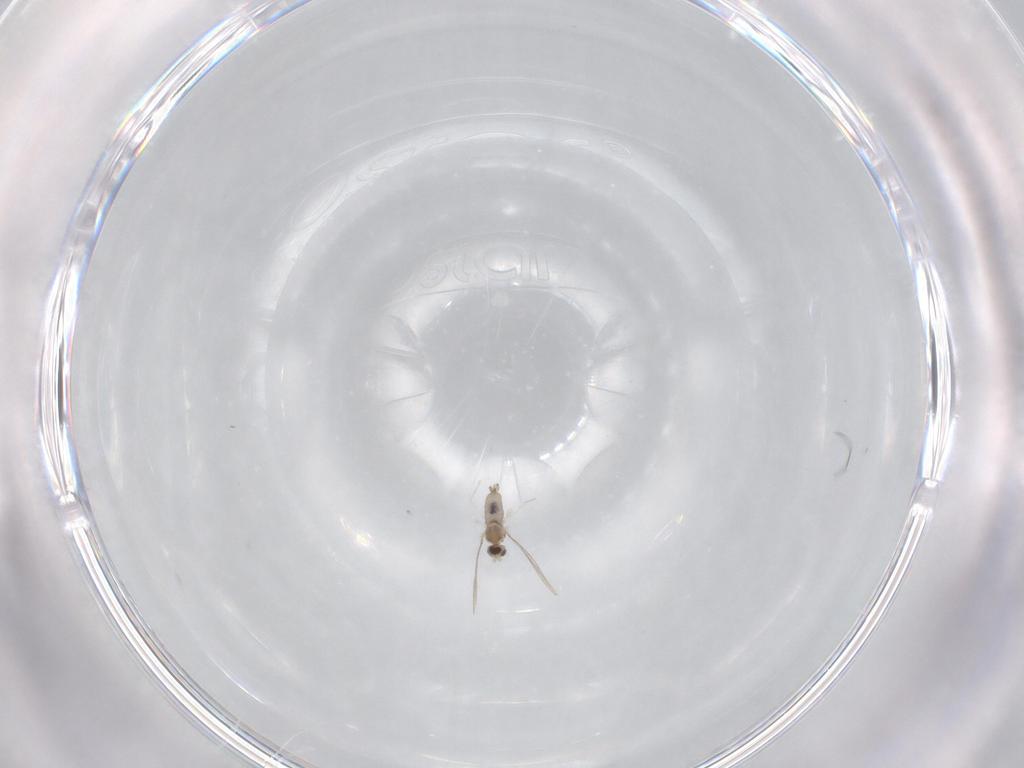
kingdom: Animalia
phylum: Arthropoda
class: Insecta
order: Diptera
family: Cecidomyiidae
